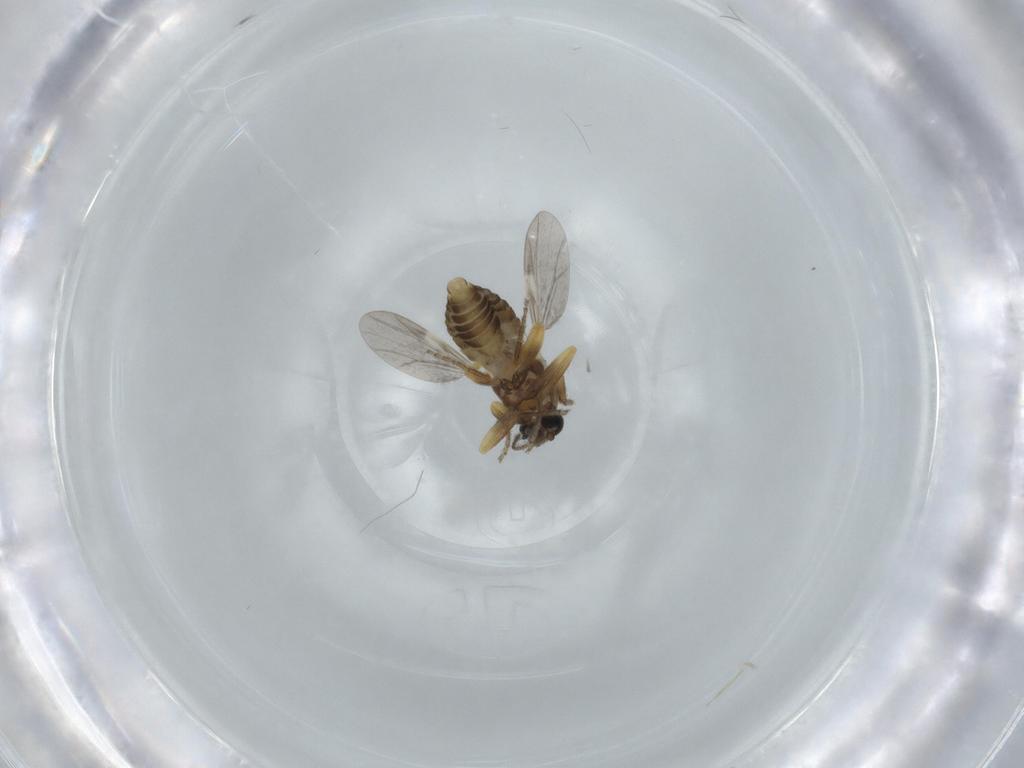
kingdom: Animalia
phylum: Arthropoda
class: Insecta
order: Diptera
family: Ceratopogonidae
